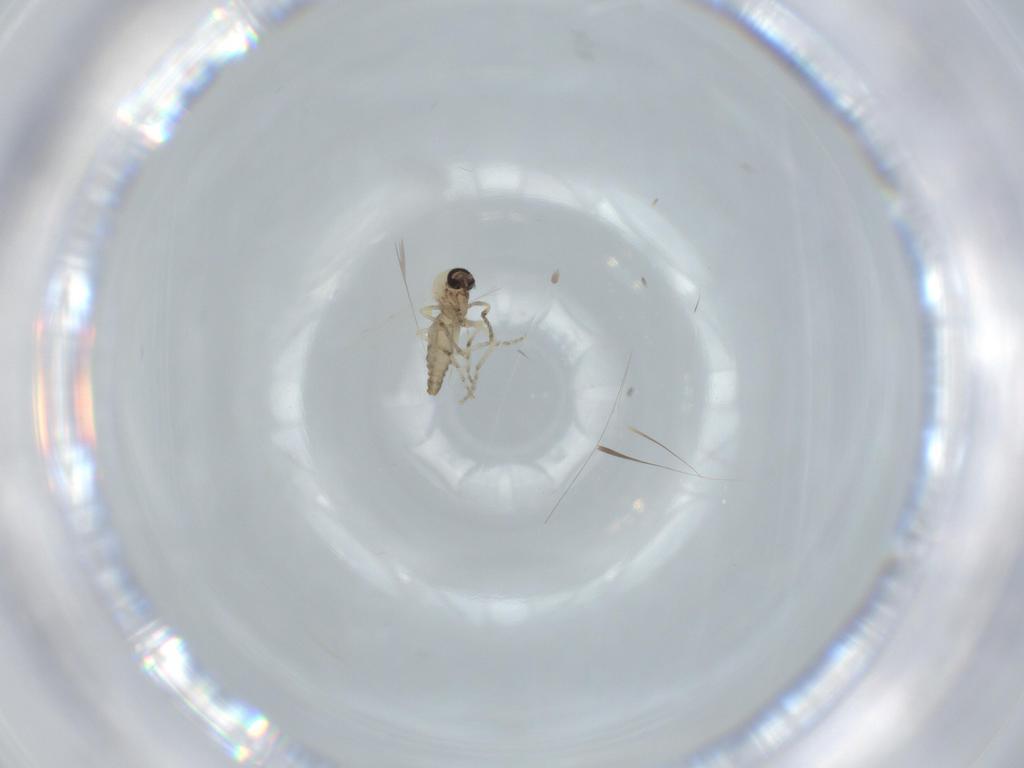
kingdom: Animalia
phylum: Arthropoda
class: Insecta
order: Diptera
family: Ceratopogonidae
